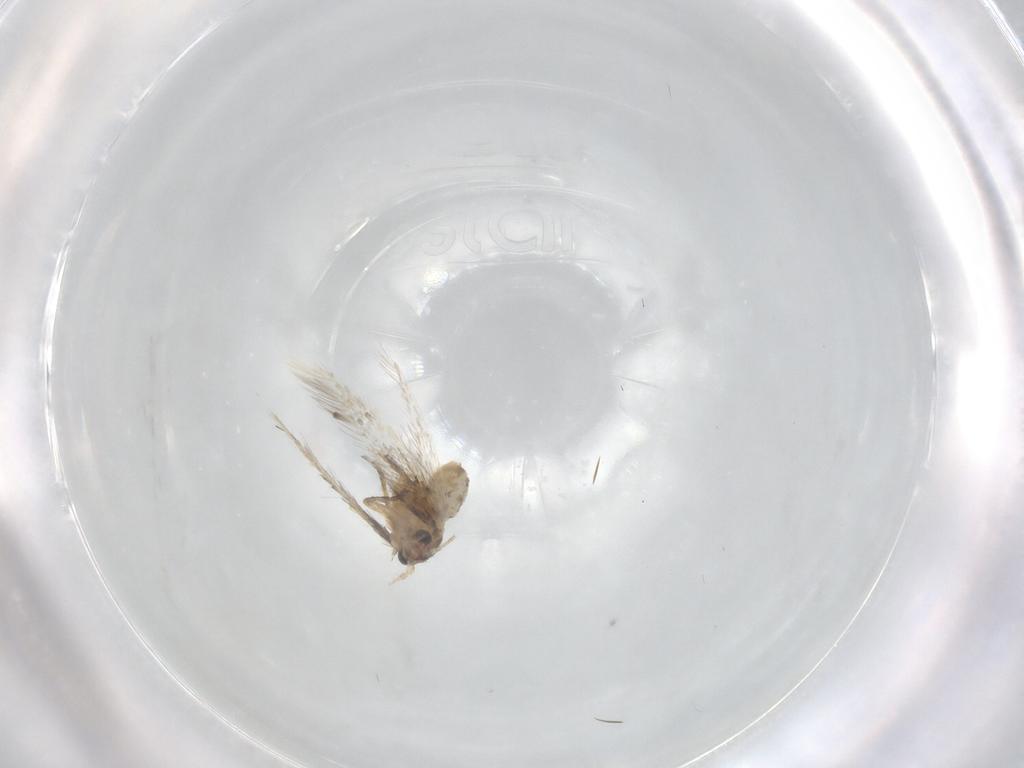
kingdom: Animalia
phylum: Arthropoda
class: Insecta
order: Lepidoptera
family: Nepticulidae
